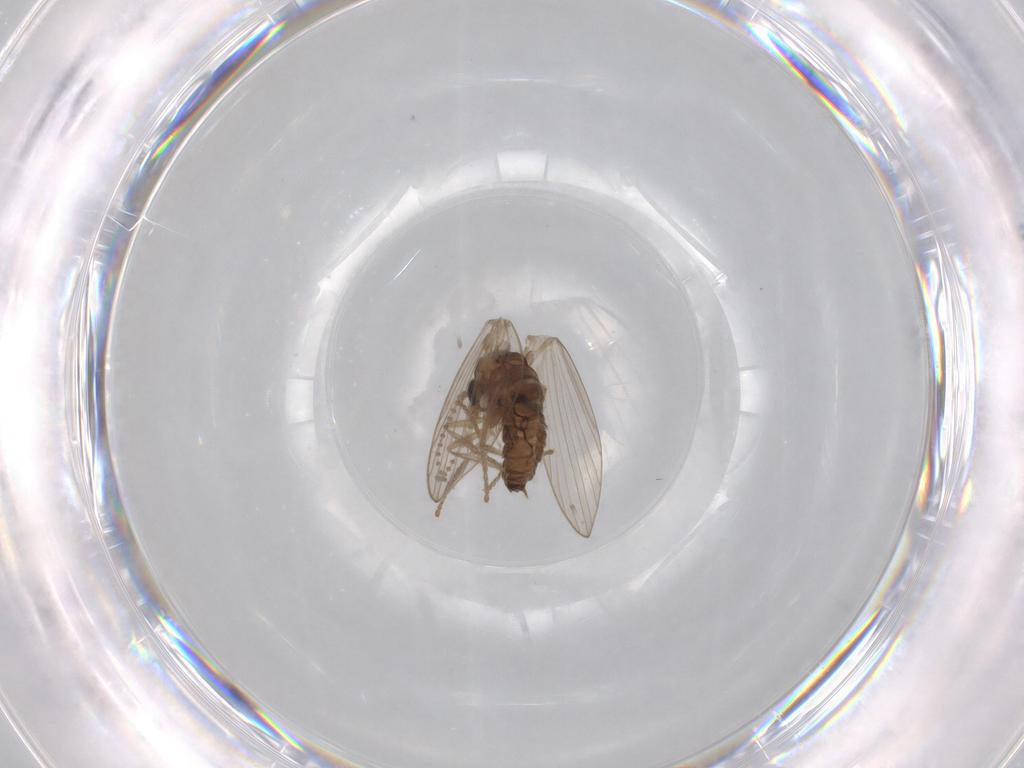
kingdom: Animalia
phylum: Arthropoda
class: Insecta
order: Diptera
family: Psychodidae
